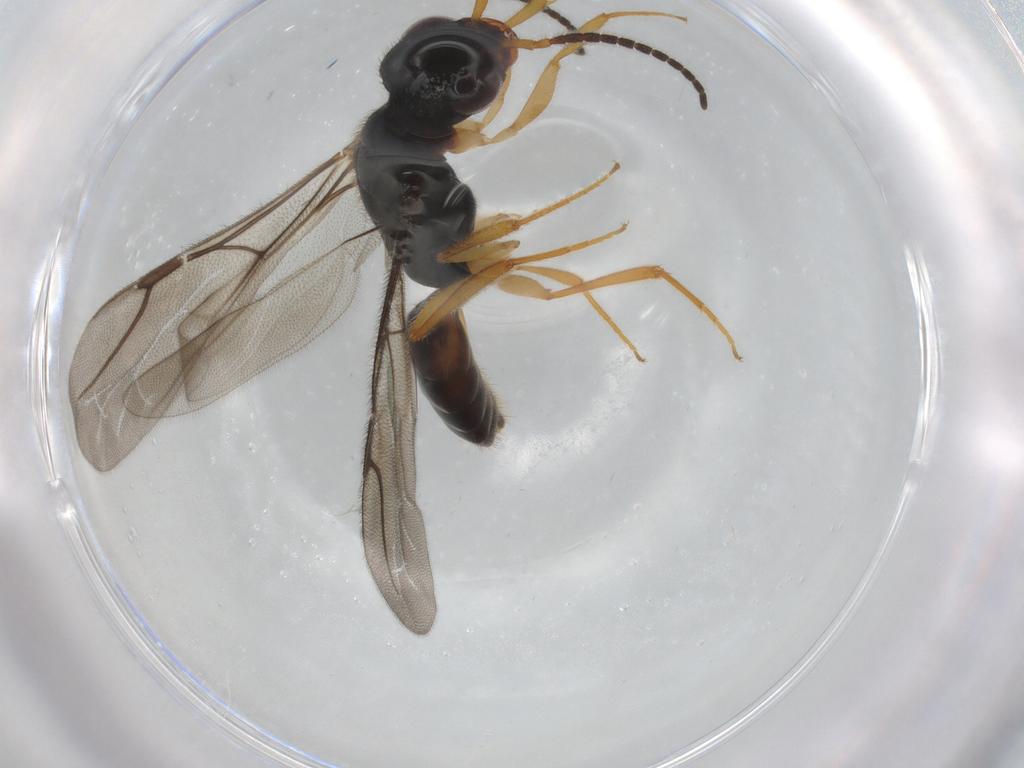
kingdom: Animalia
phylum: Arthropoda
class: Insecta
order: Hymenoptera
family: Bethylidae
